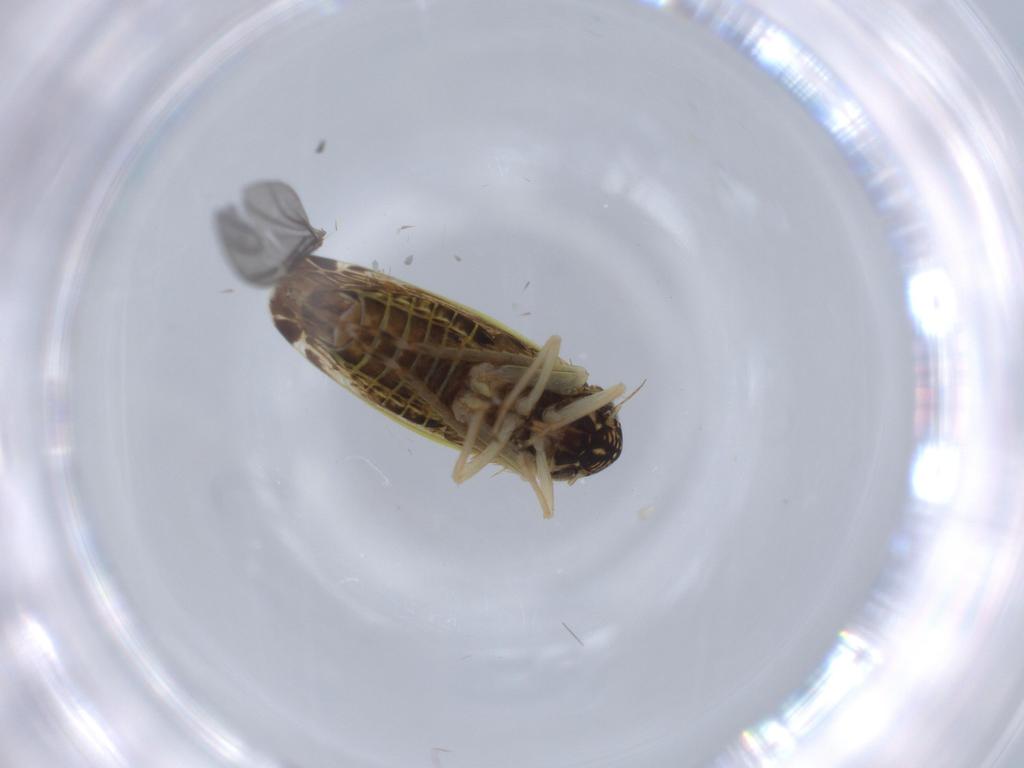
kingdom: Animalia
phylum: Arthropoda
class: Insecta
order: Hemiptera
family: Cicadellidae
